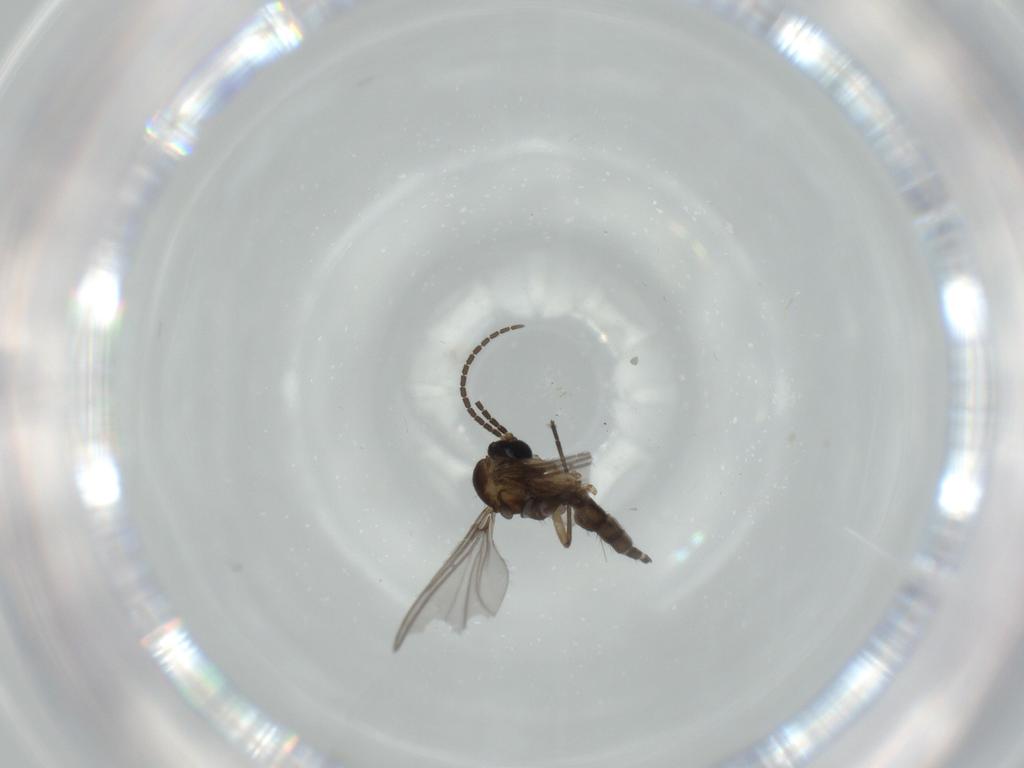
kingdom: Animalia
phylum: Arthropoda
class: Insecta
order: Diptera
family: Sciaridae
